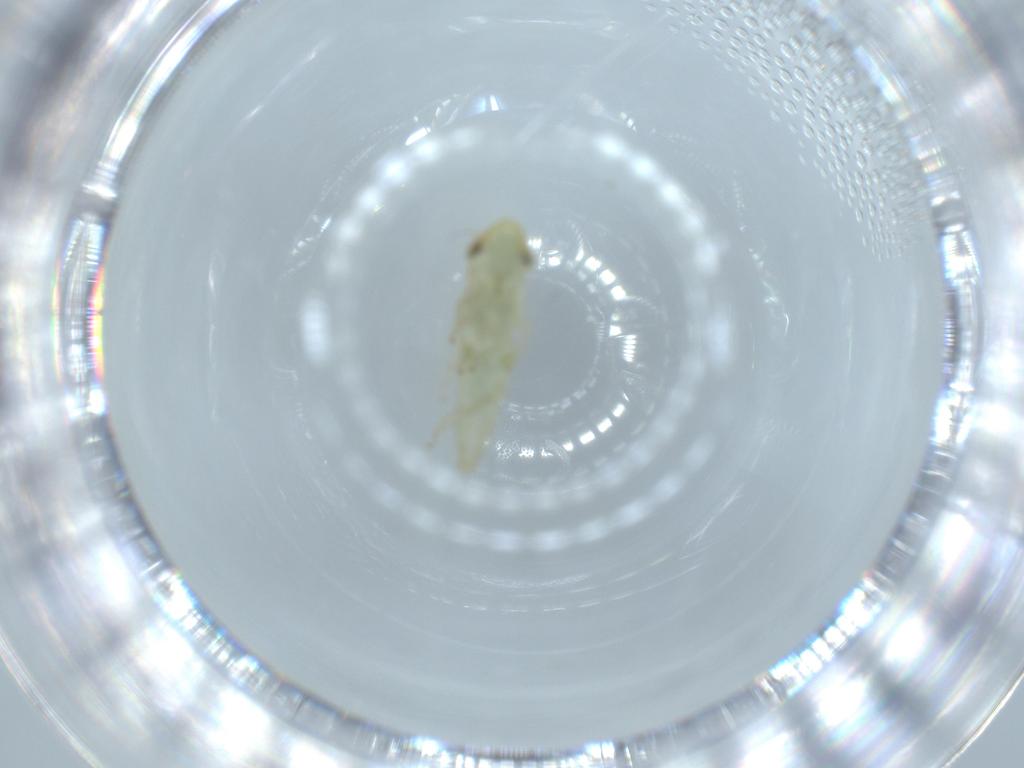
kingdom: Animalia
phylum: Arthropoda
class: Insecta
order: Hemiptera
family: Cicadellidae
